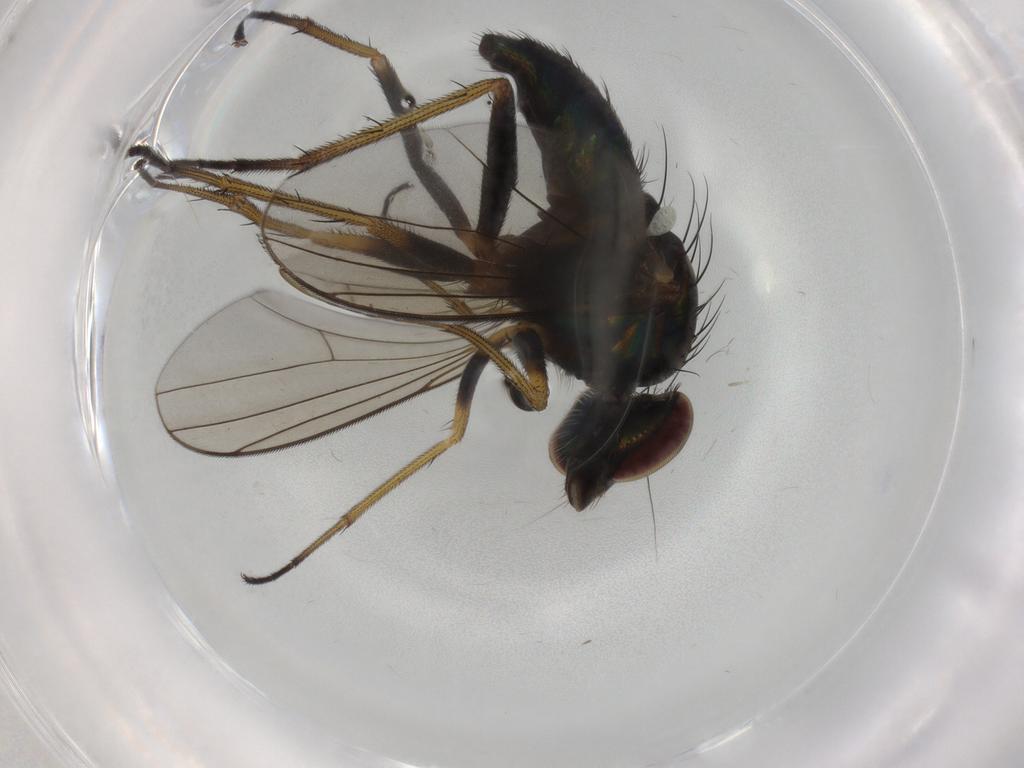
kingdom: Animalia
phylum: Arthropoda
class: Insecta
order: Diptera
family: Dolichopodidae
